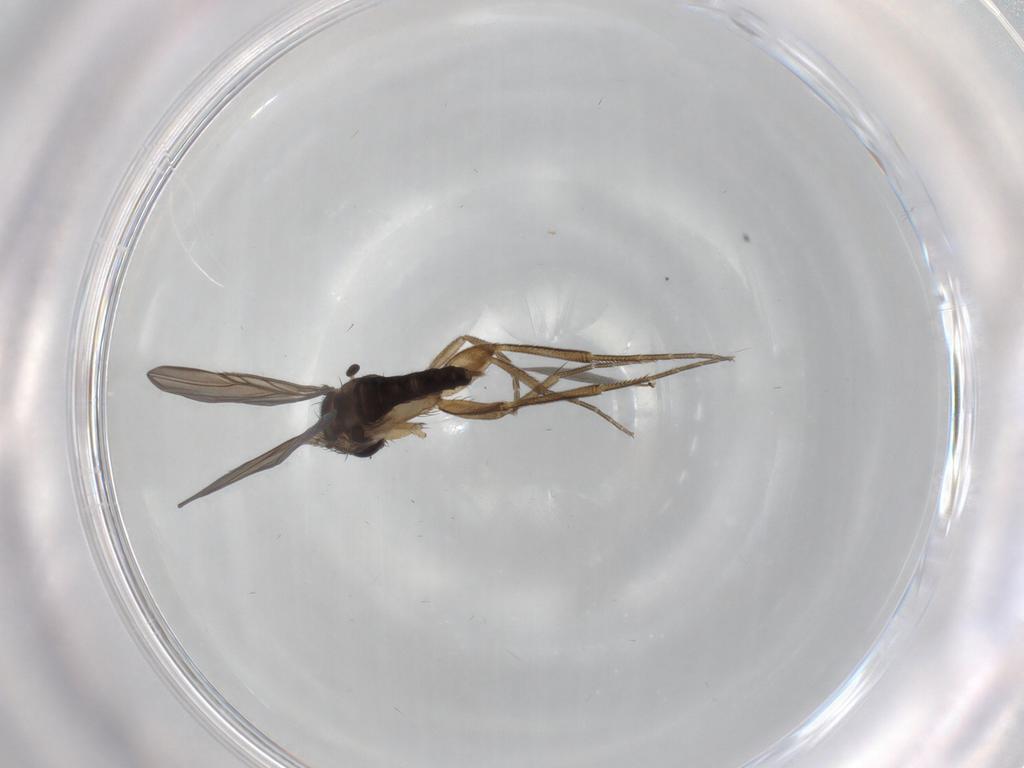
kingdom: Animalia
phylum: Arthropoda
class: Insecta
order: Diptera
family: Phoridae
